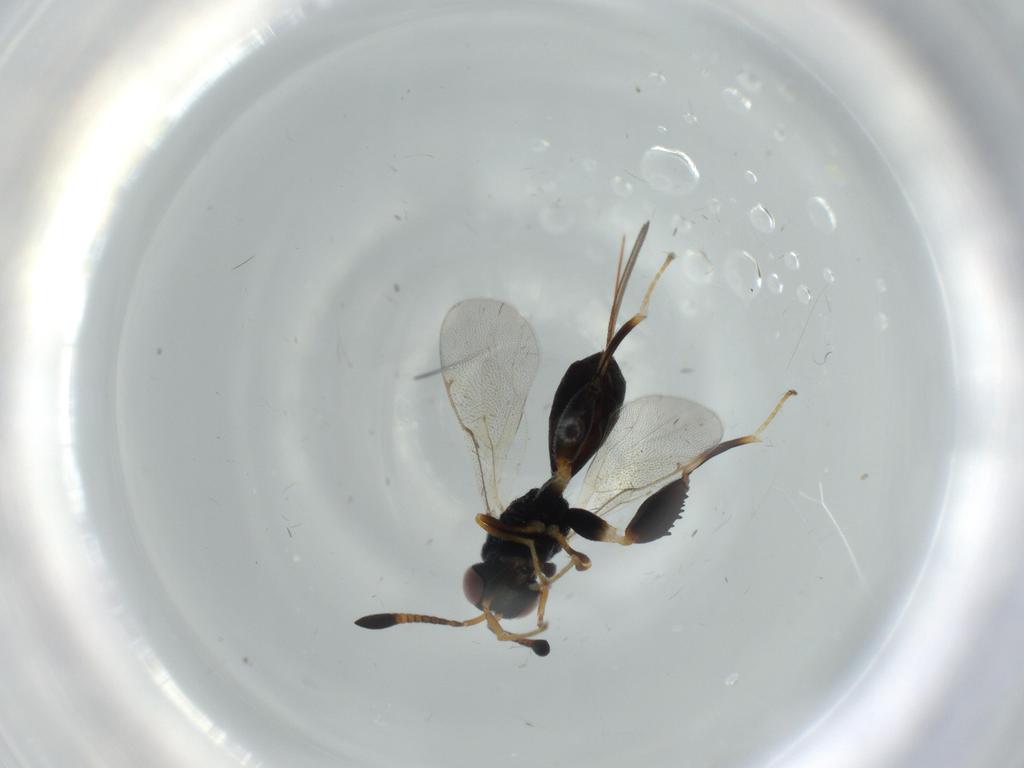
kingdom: Animalia
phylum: Arthropoda
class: Insecta
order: Hymenoptera
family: Torymidae
